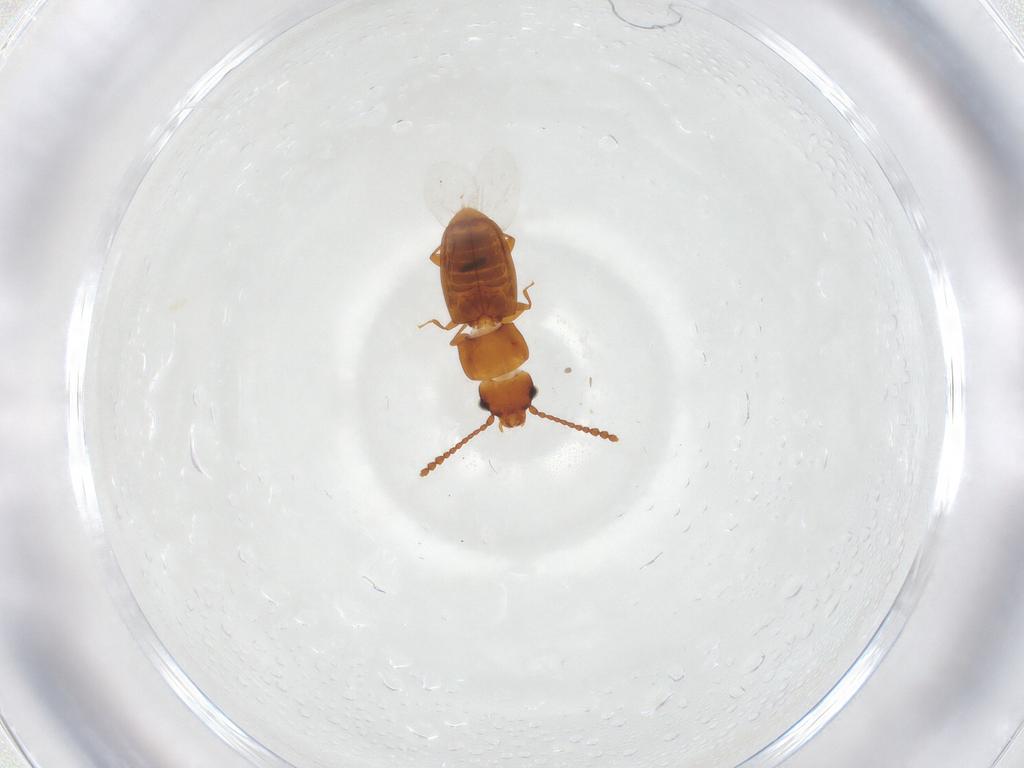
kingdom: Animalia
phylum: Arthropoda
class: Insecta
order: Coleoptera
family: Laemophloeidae
